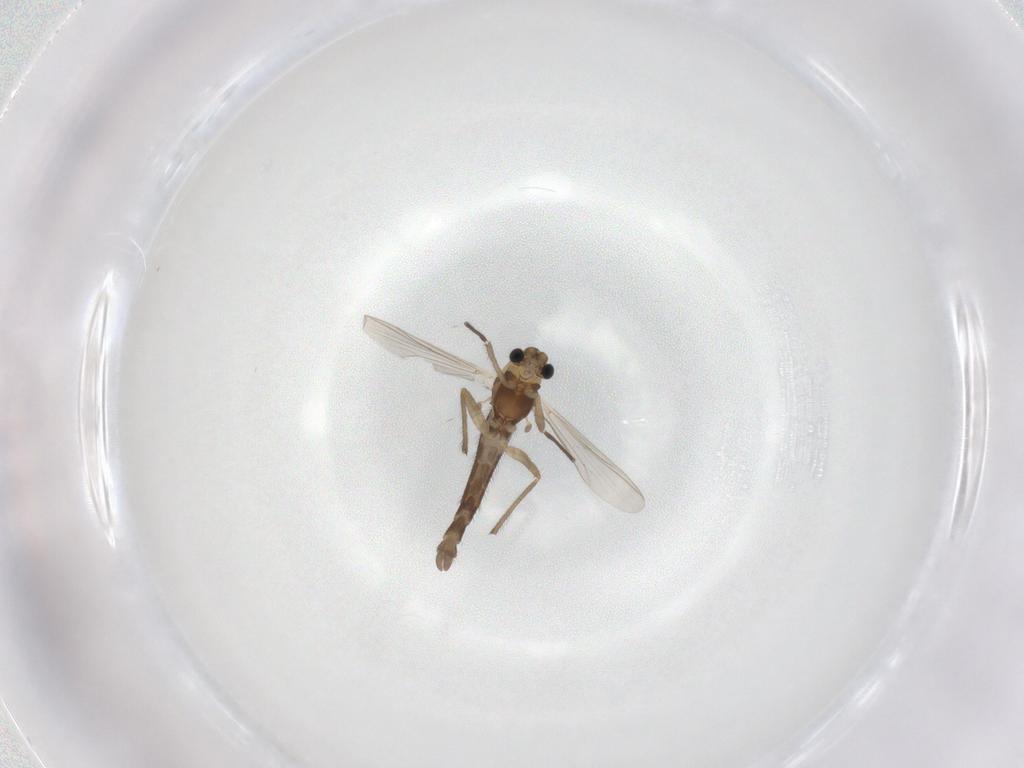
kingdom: Animalia
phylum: Arthropoda
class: Insecta
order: Diptera
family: Chironomidae
